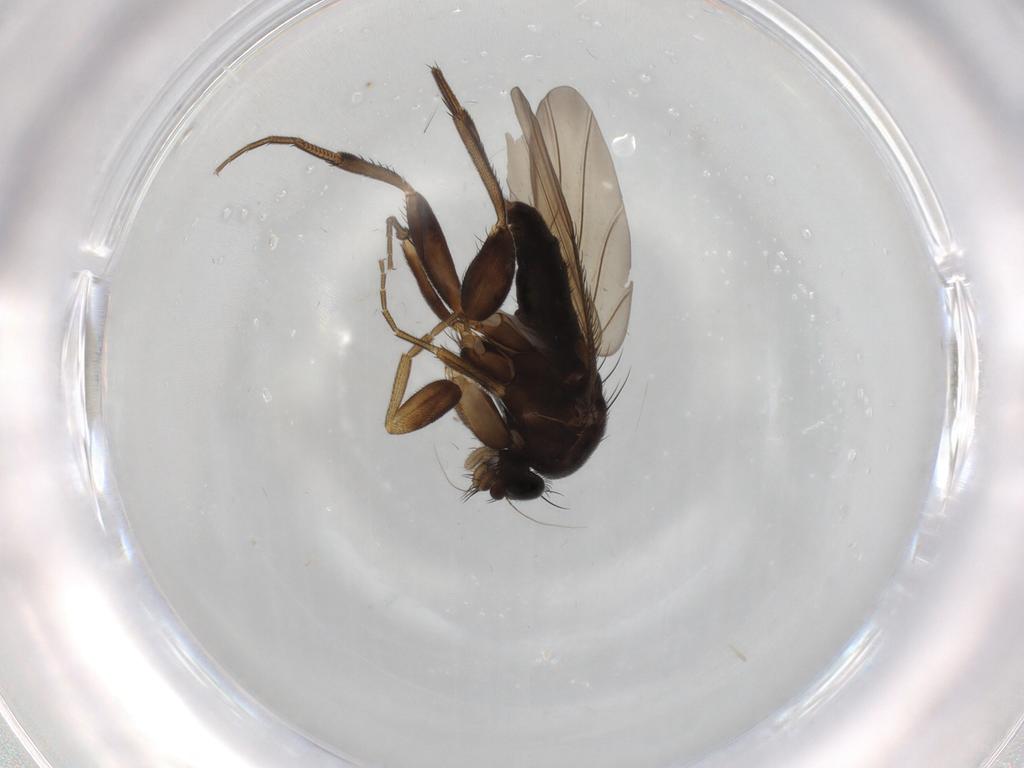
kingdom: Animalia
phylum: Arthropoda
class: Insecta
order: Diptera
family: Phoridae
